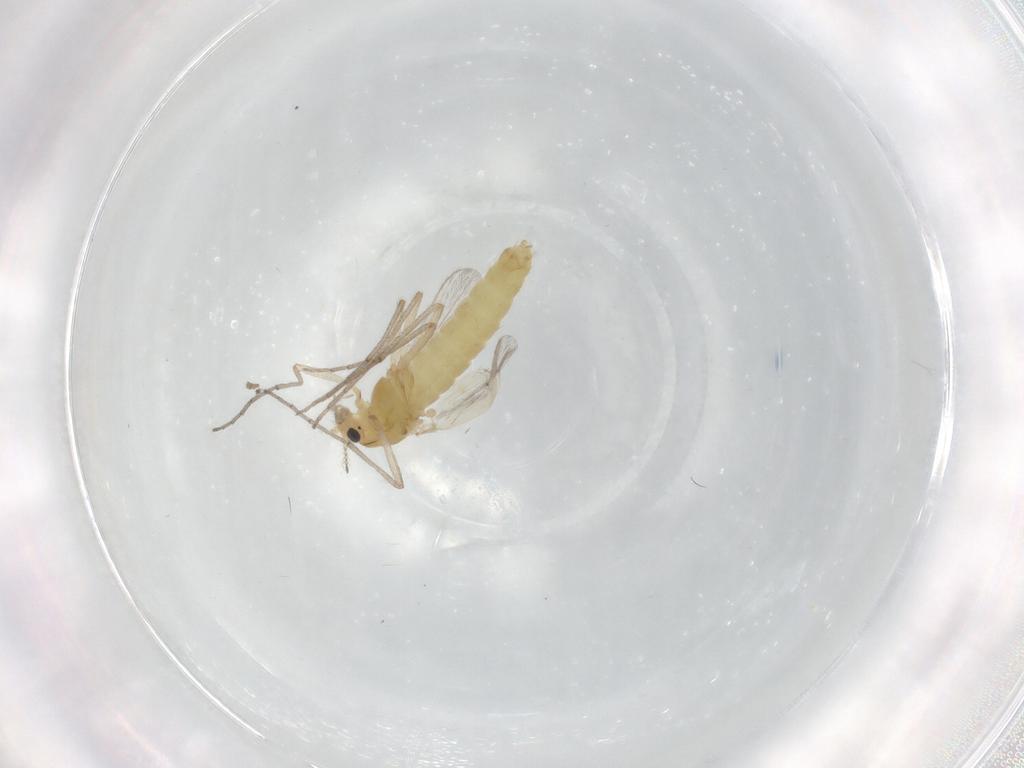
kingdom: Animalia
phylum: Arthropoda
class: Insecta
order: Diptera
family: Chironomidae
